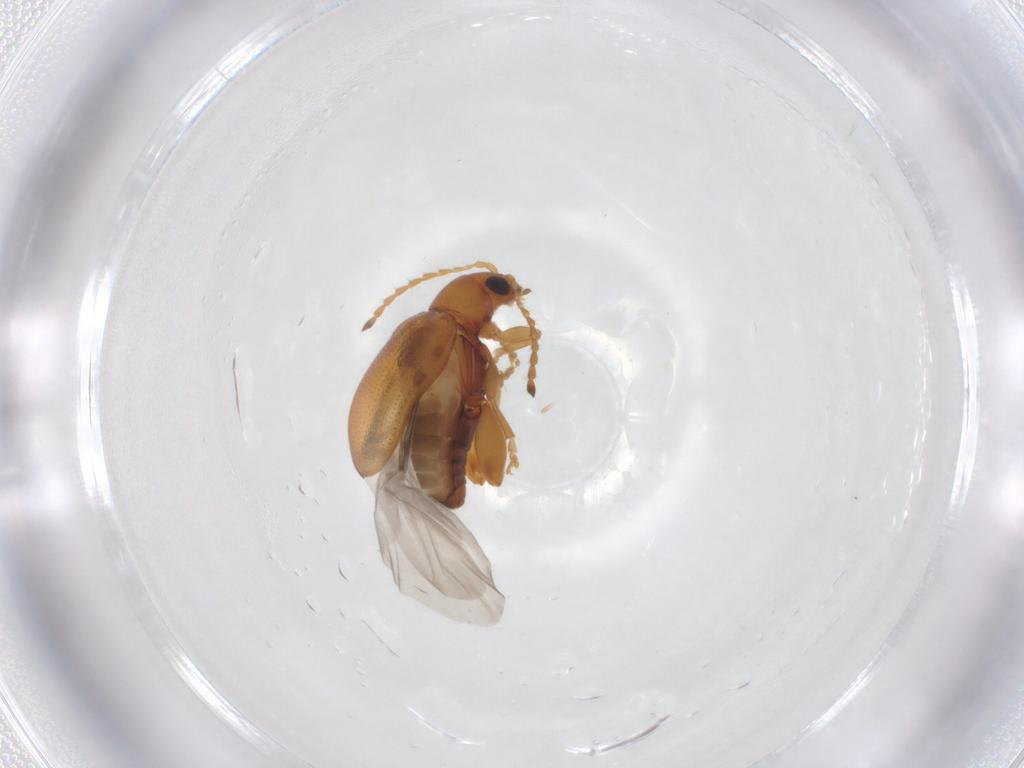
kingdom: Animalia
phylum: Arthropoda
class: Insecta
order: Coleoptera
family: Chrysomelidae
